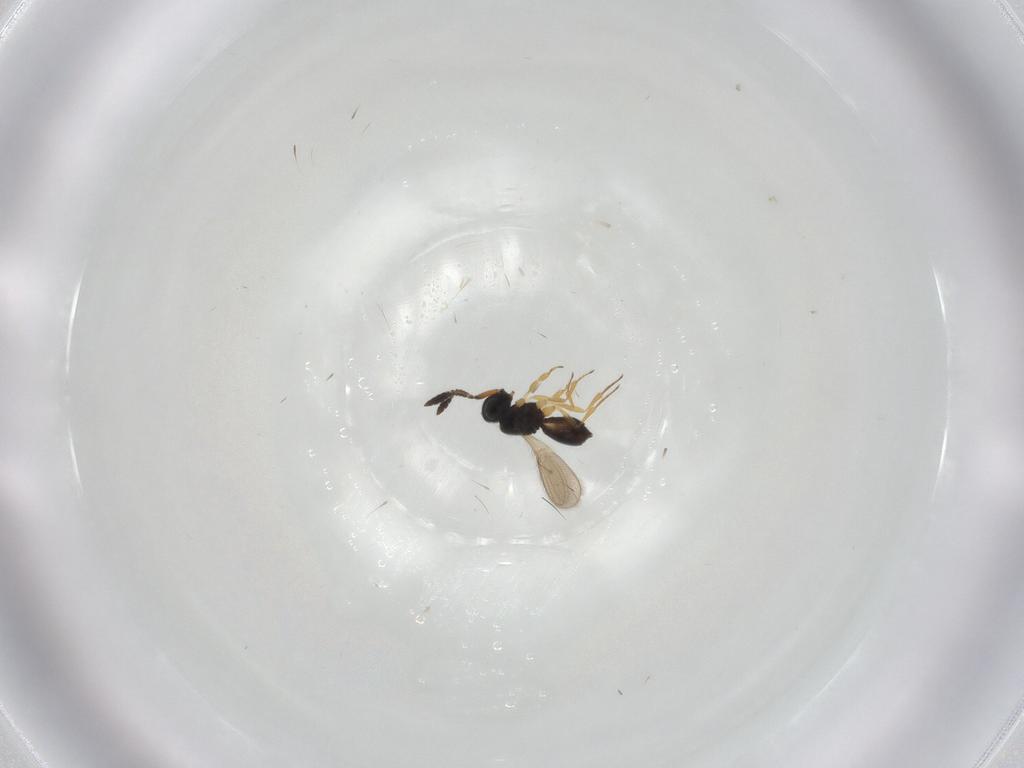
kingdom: Animalia
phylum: Arthropoda
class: Insecta
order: Hymenoptera
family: Scelionidae
